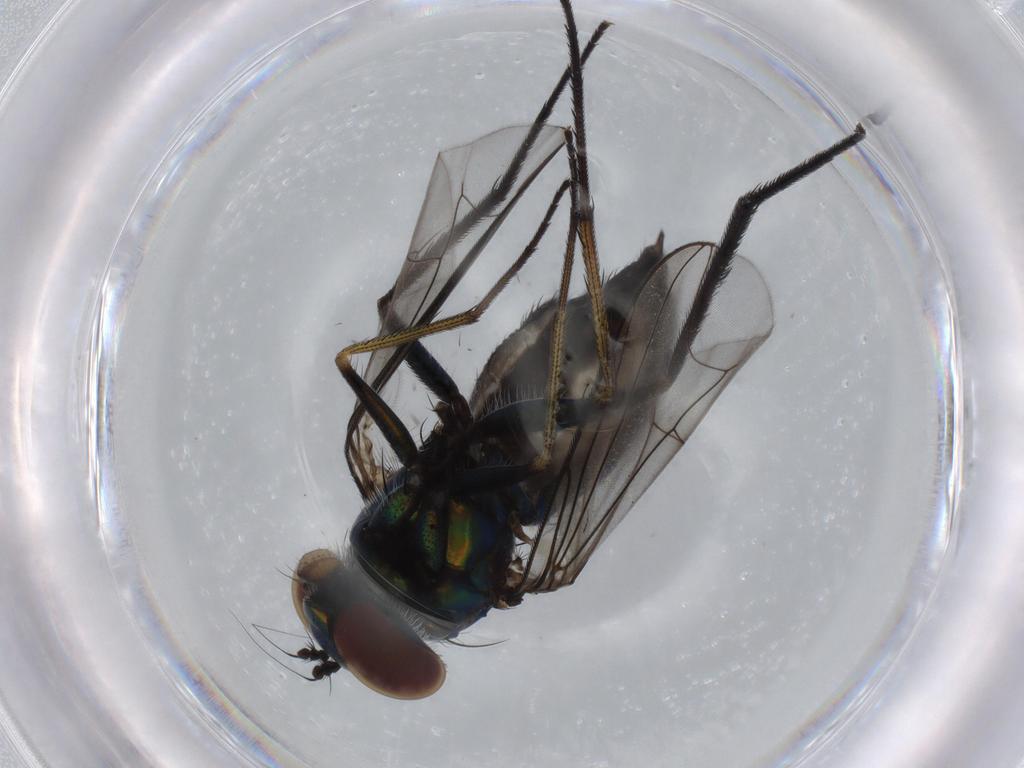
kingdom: Animalia
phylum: Arthropoda
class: Insecta
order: Diptera
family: Dolichopodidae
